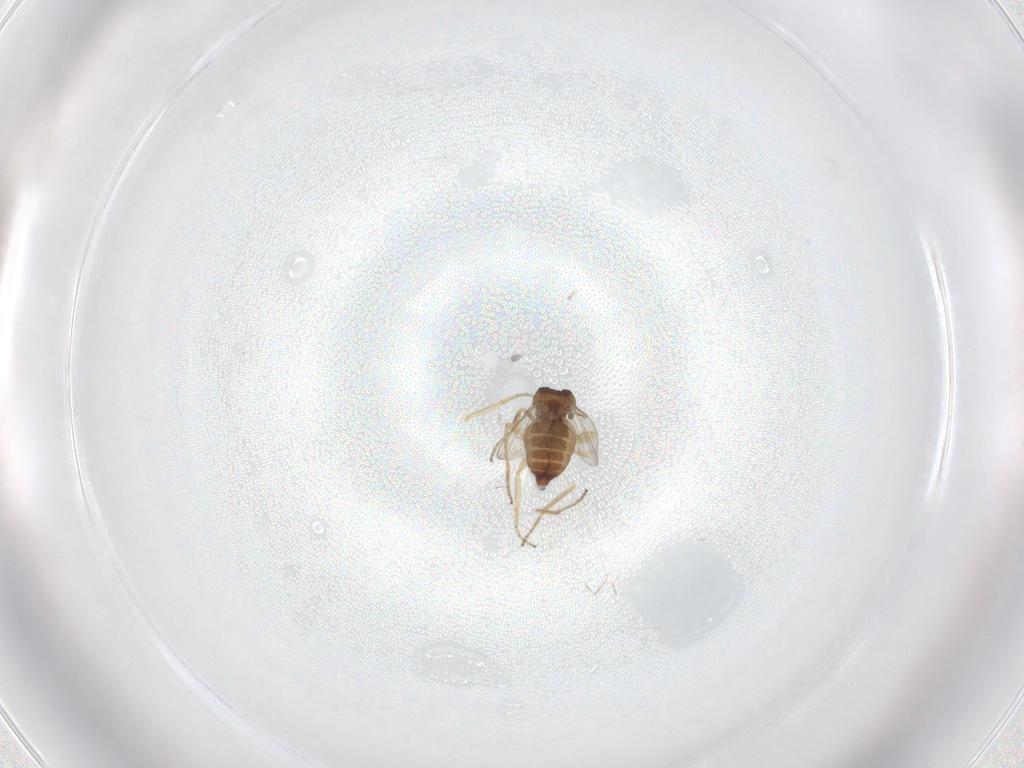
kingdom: Animalia
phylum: Arthropoda
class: Insecta
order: Diptera
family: Ceratopogonidae
